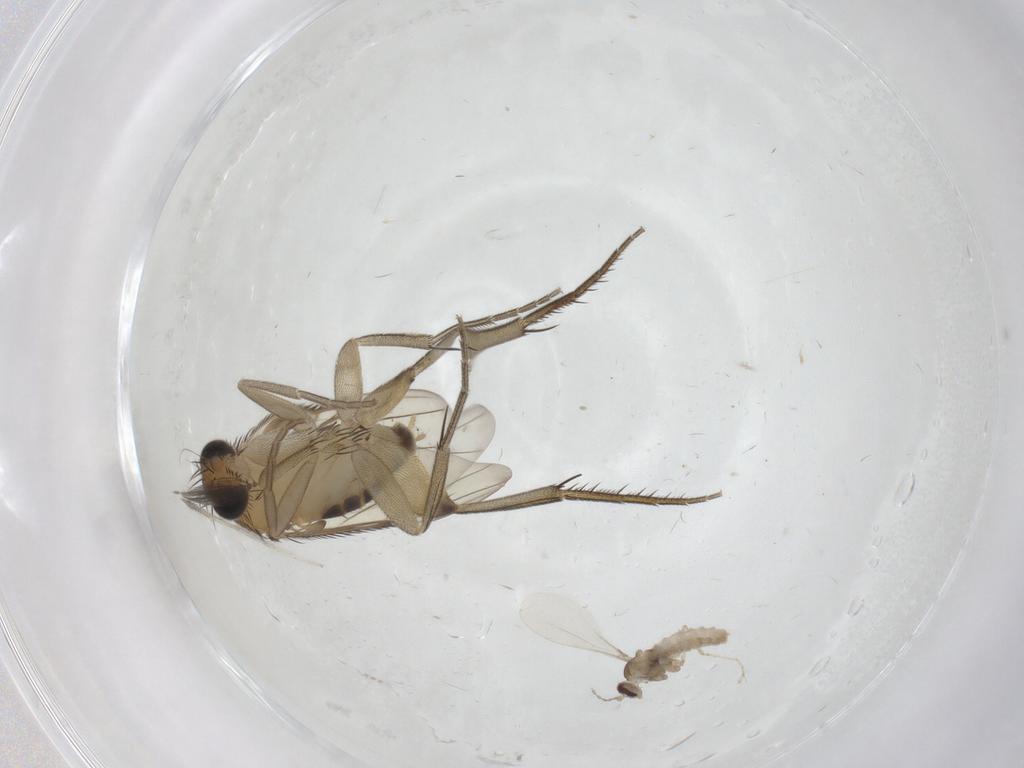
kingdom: Animalia
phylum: Arthropoda
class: Insecta
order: Diptera
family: Phoridae
